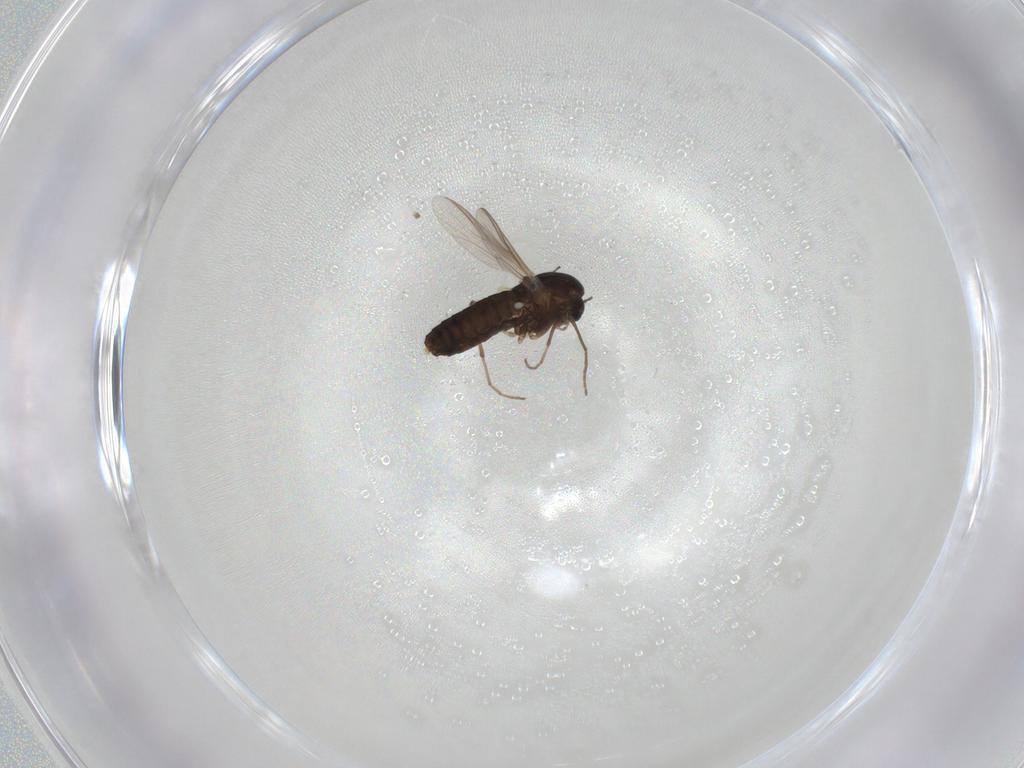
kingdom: Animalia
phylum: Arthropoda
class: Insecta
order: Diptera
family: Chironomidae
